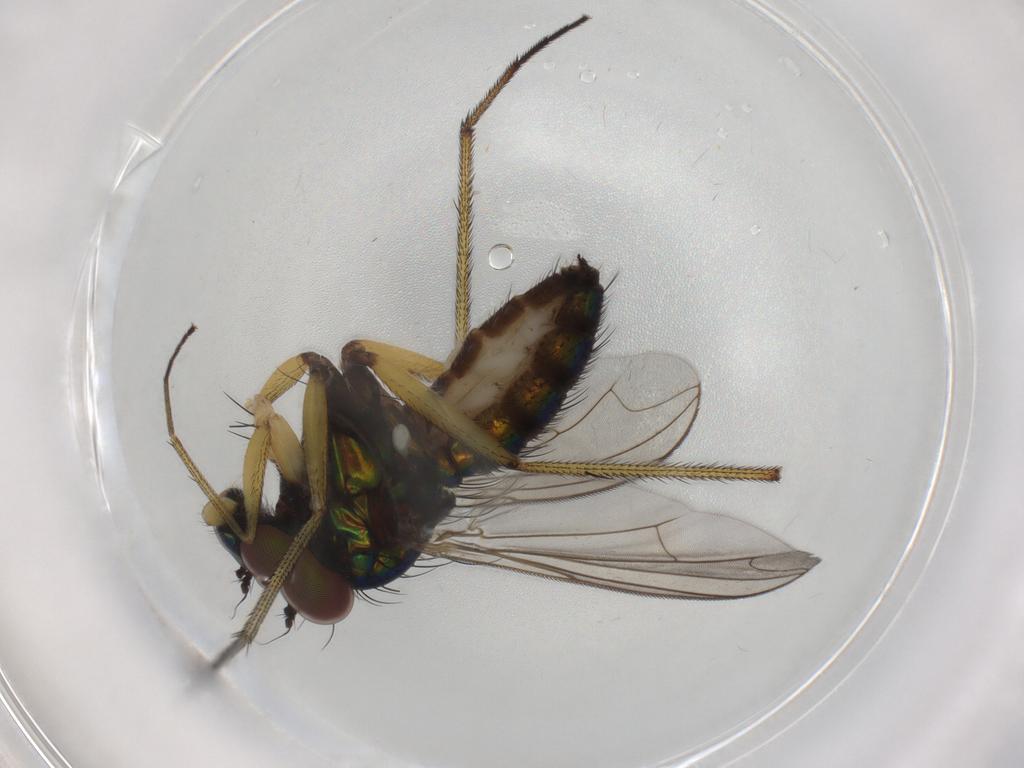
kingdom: Animalia
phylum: Arthropoda
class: Insecta
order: Diptera
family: Dolichopodidae
